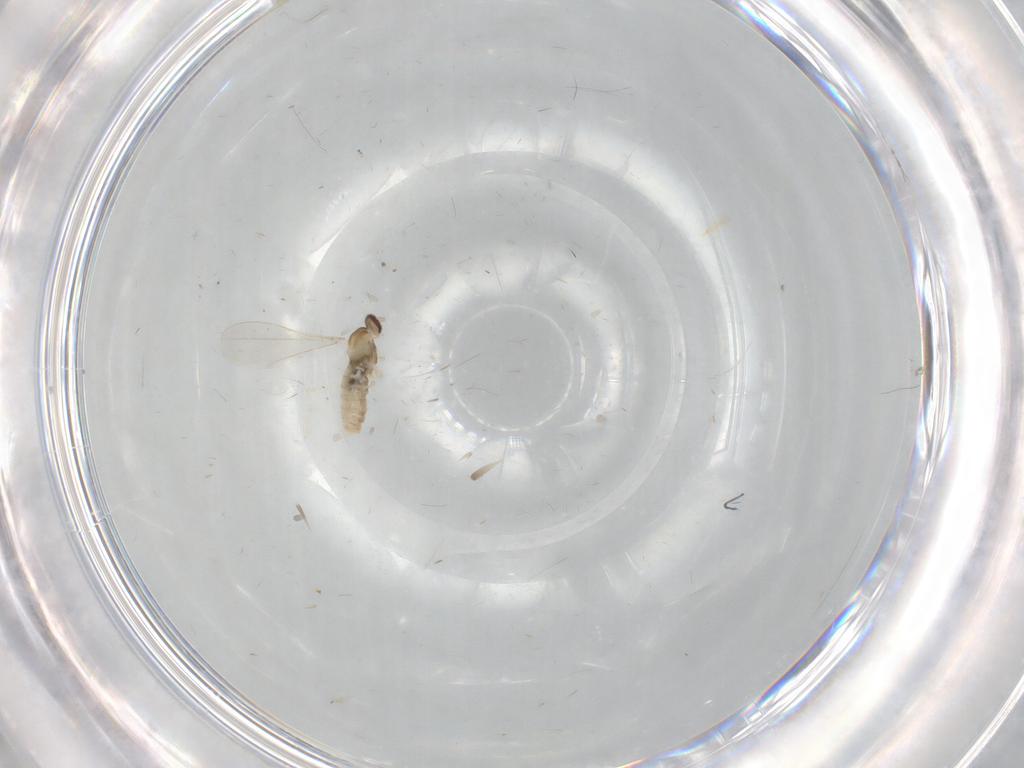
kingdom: Animalia
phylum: Arthropoda
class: Insecta
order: Diptera
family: Cecidomyiidae
